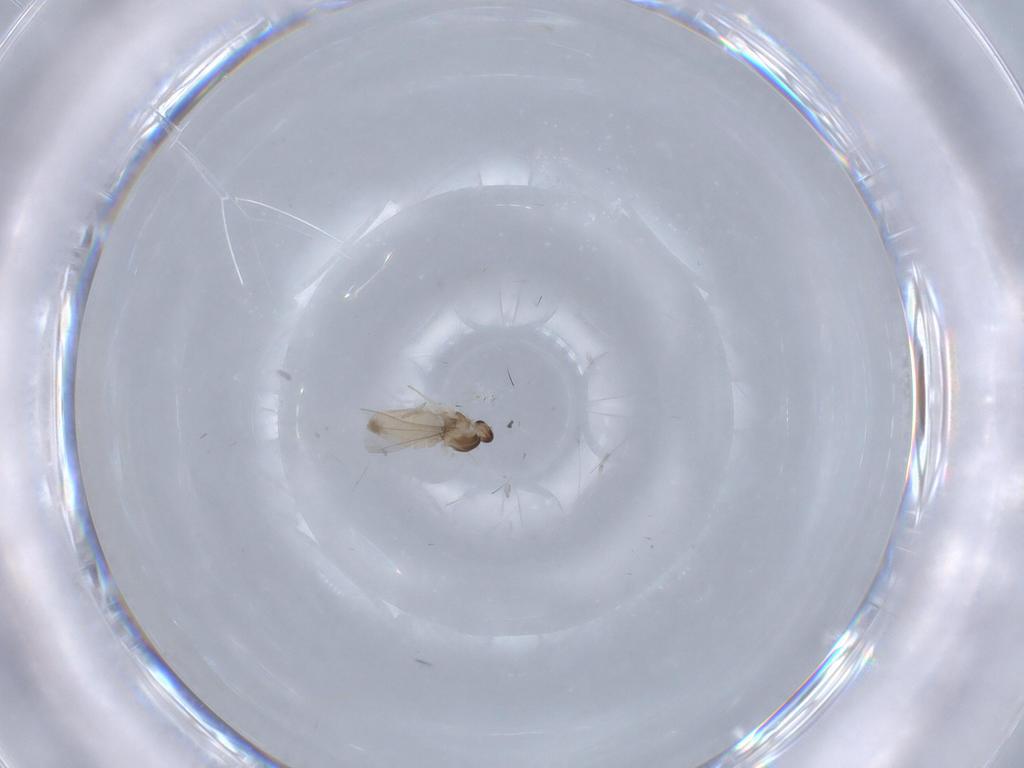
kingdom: Animalia
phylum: Arthropoda
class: Insecta
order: Diptera
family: Cecidomyiidae
